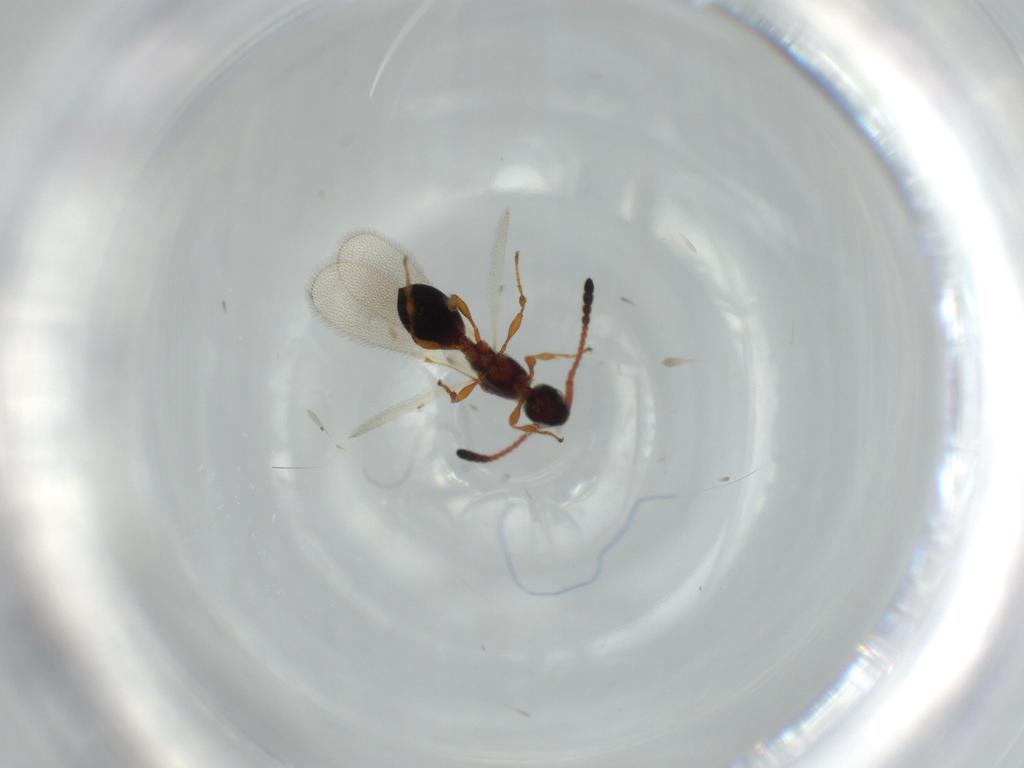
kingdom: Animalia
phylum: Arthropoda
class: Insecta
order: Hymenoptera
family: Diapriidae
